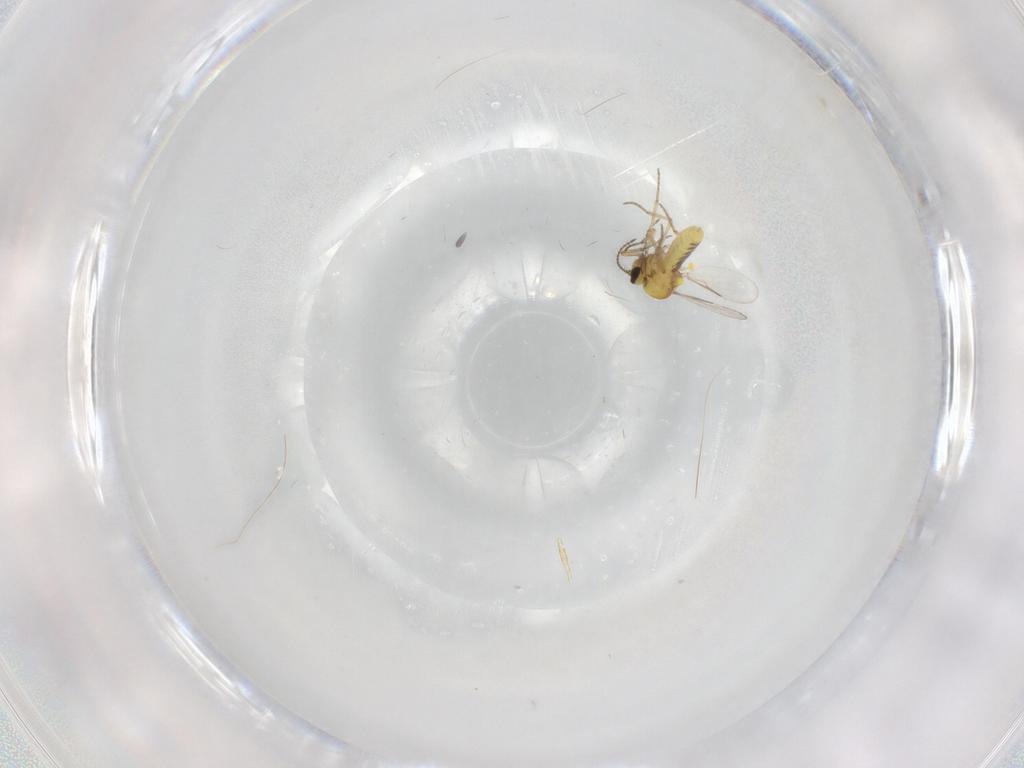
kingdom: Animalia
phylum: Arthropoda
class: Insecta
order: Diptera
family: Ceratopogonidae
